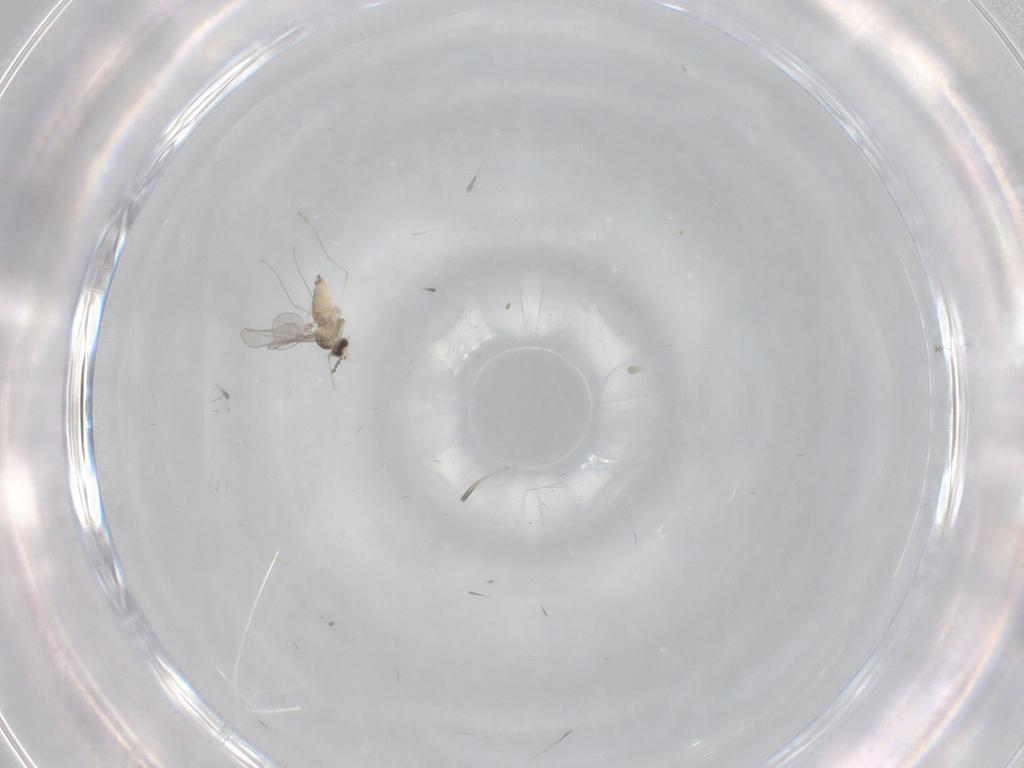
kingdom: Animalia
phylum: Arthropoda
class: Insecta
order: Diptera
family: Cecidomyiidae
